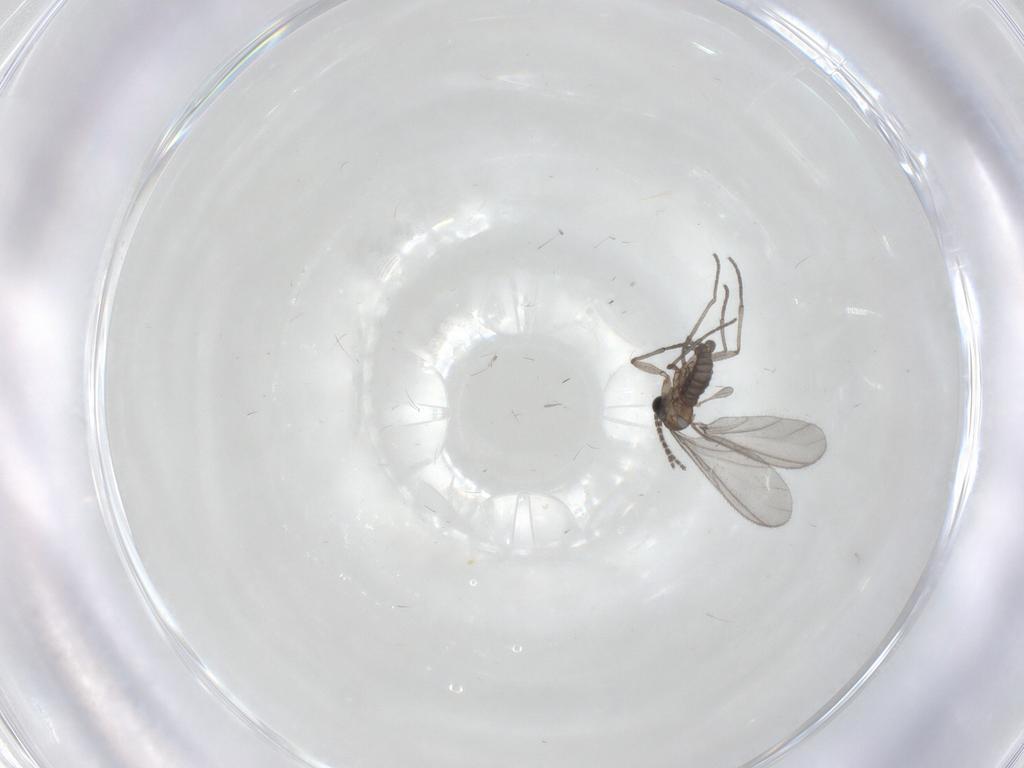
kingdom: Animalia
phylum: Arthropoda
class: Insecta
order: Diptera
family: Sciaridae
